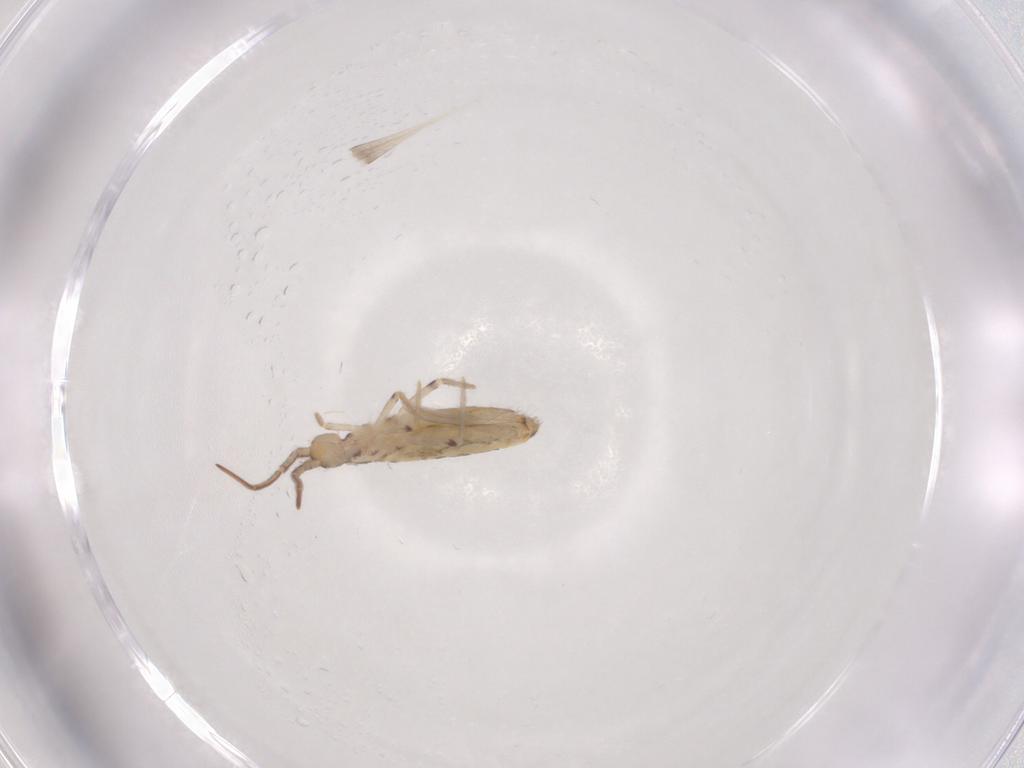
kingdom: Animalia
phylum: Arthropoda
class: Collembola
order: Entomobryomorpha
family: Entomobryidae
